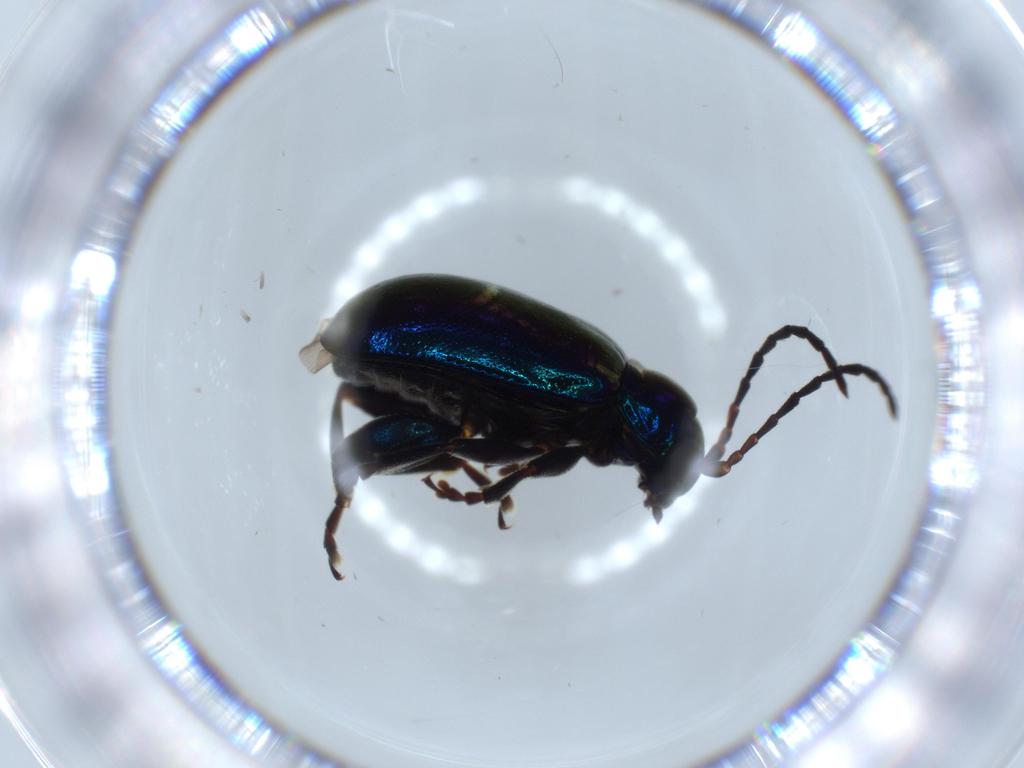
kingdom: Animalia
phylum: Arthropoda
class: Insecta
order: Coleoptera
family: Chrysomelidae
